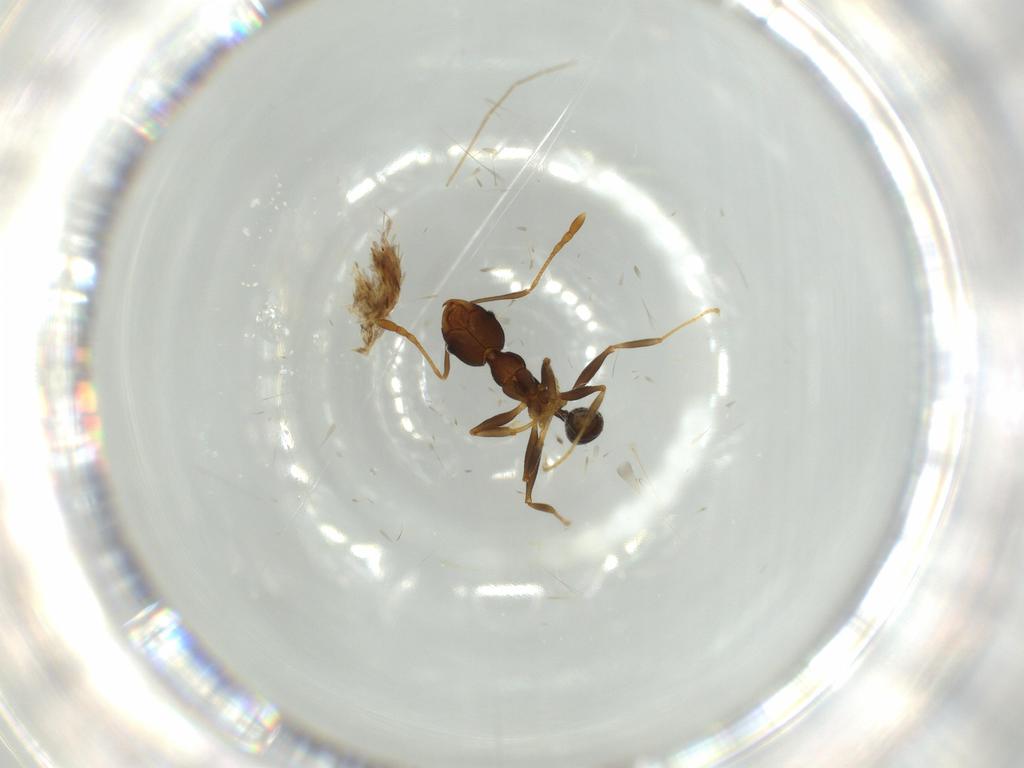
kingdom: Animalia
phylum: Arthropoda
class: Insecta
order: Hymenoptera
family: Formicidae
